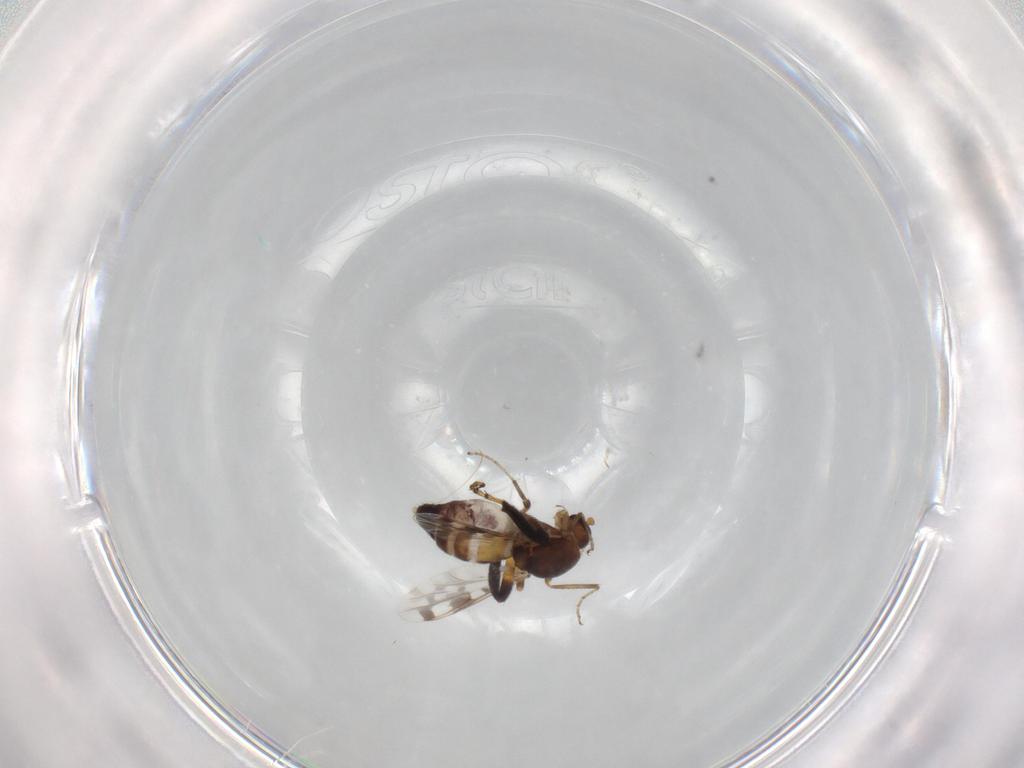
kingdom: Animalia
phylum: Arthropoda
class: Insecta
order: Diptera
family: Ceratopogonidae
